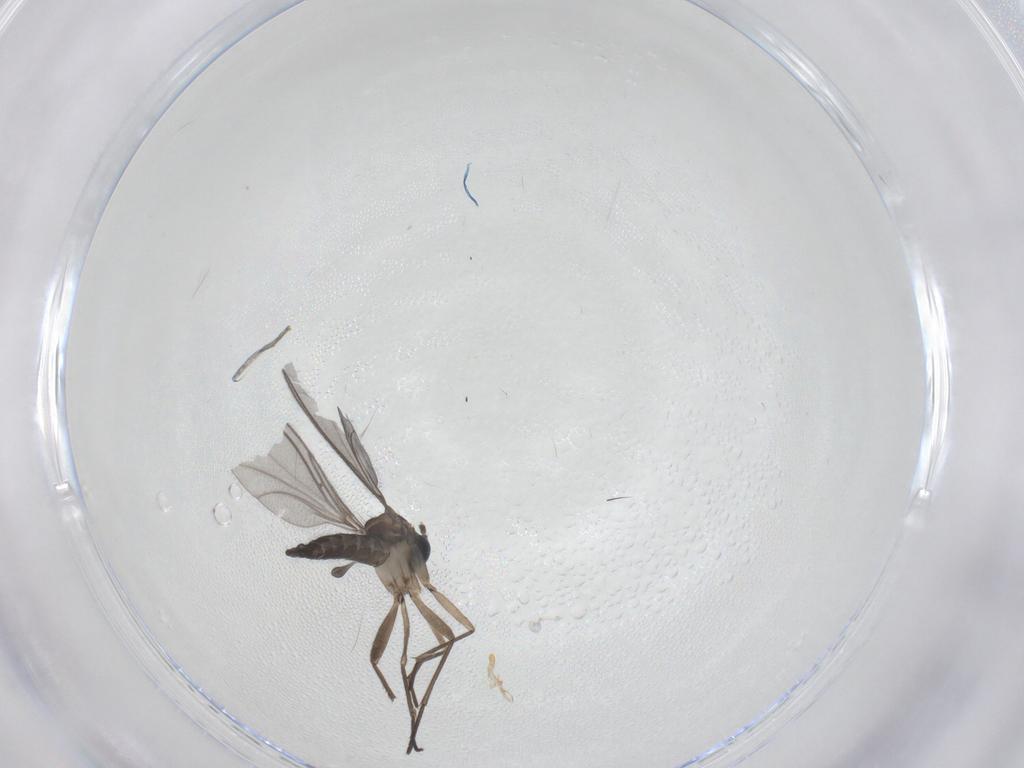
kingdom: Animalia
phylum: Arthropoda
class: Insecta
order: Diptera
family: Sciaridae
